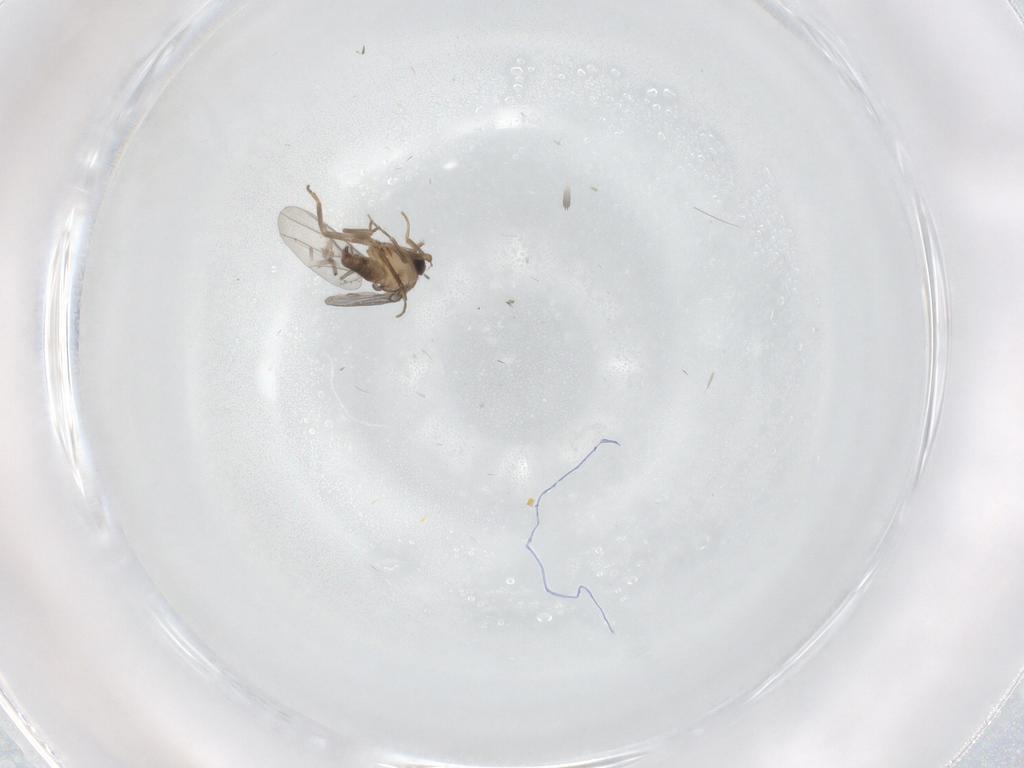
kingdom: Animalia
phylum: Arthropoda
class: Insecta
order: Diptera
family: Phoridae
